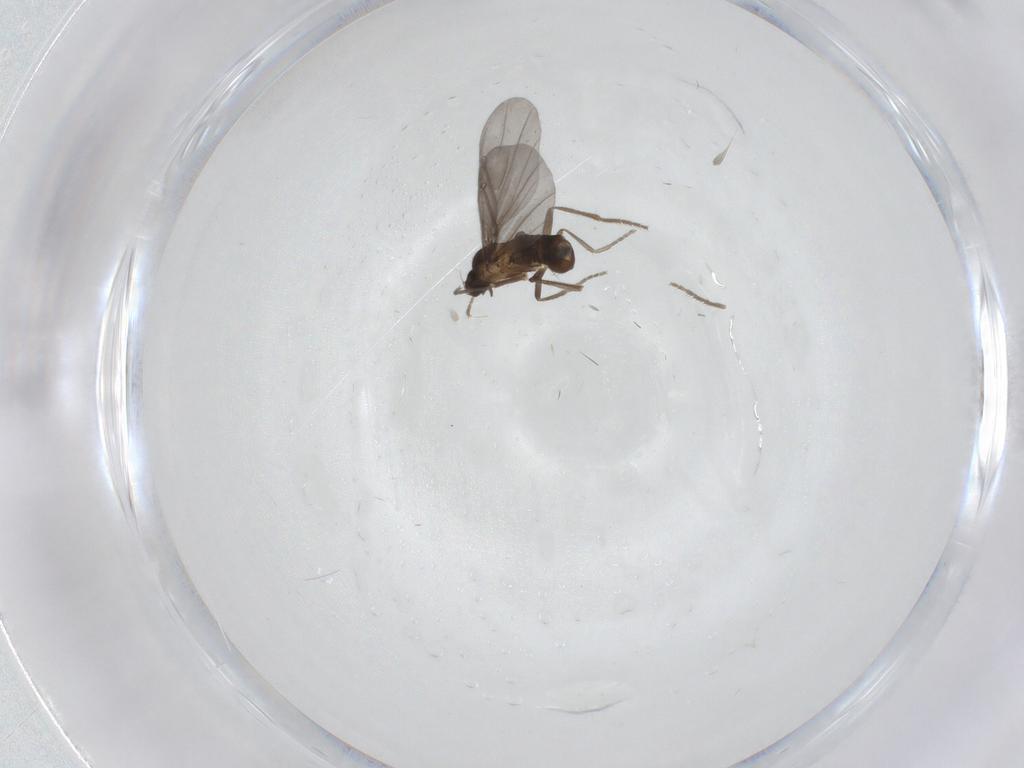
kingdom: Animalia
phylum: Arthropoda
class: Insecta
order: Diptera
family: Phoridae
